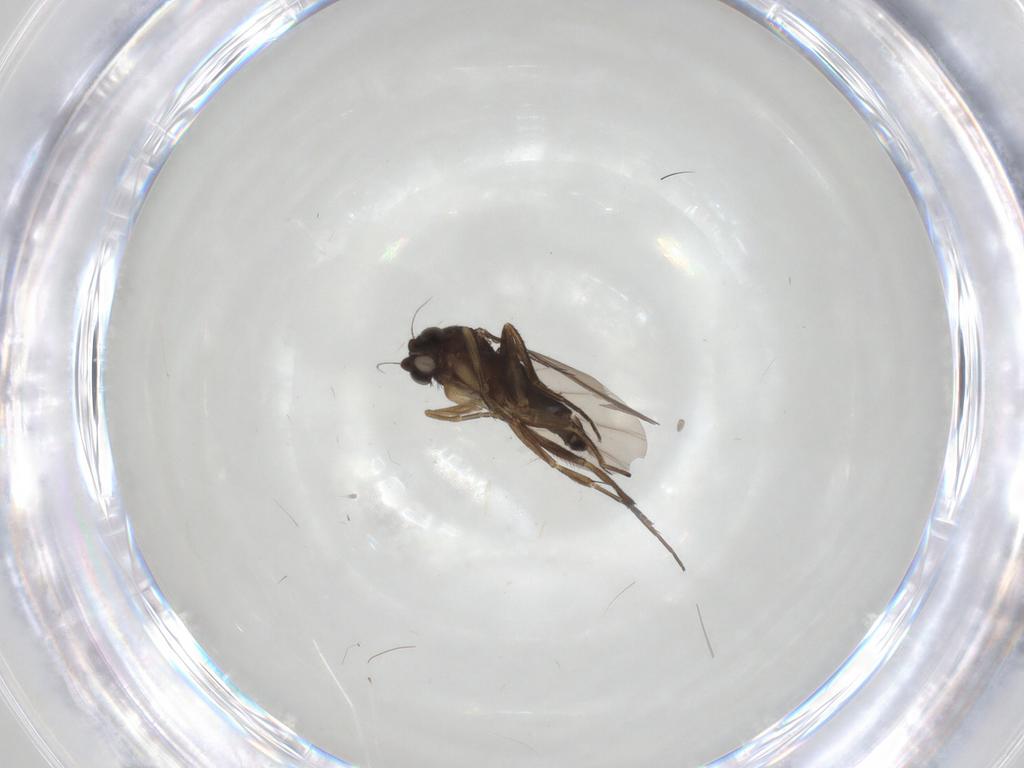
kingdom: Animalia
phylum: Arthropoda
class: Insecta
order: Diptera
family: Phoridae
